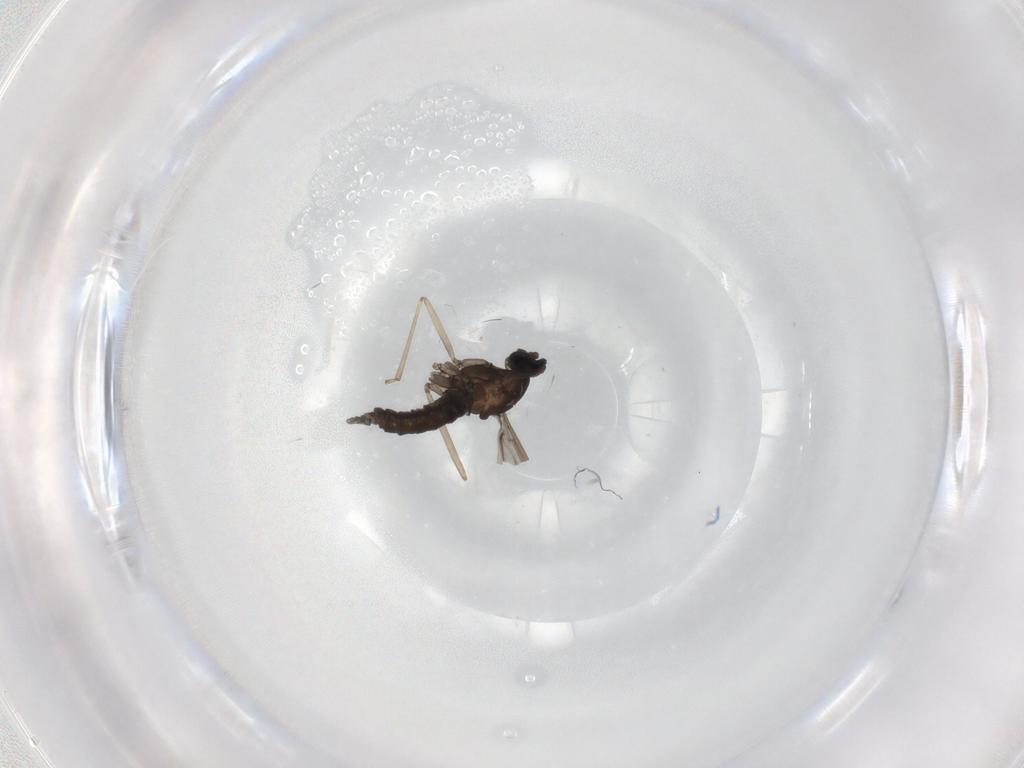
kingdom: Animalia
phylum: Arthropoda
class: Insecta
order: Diptera
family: Cecidomyiidae
